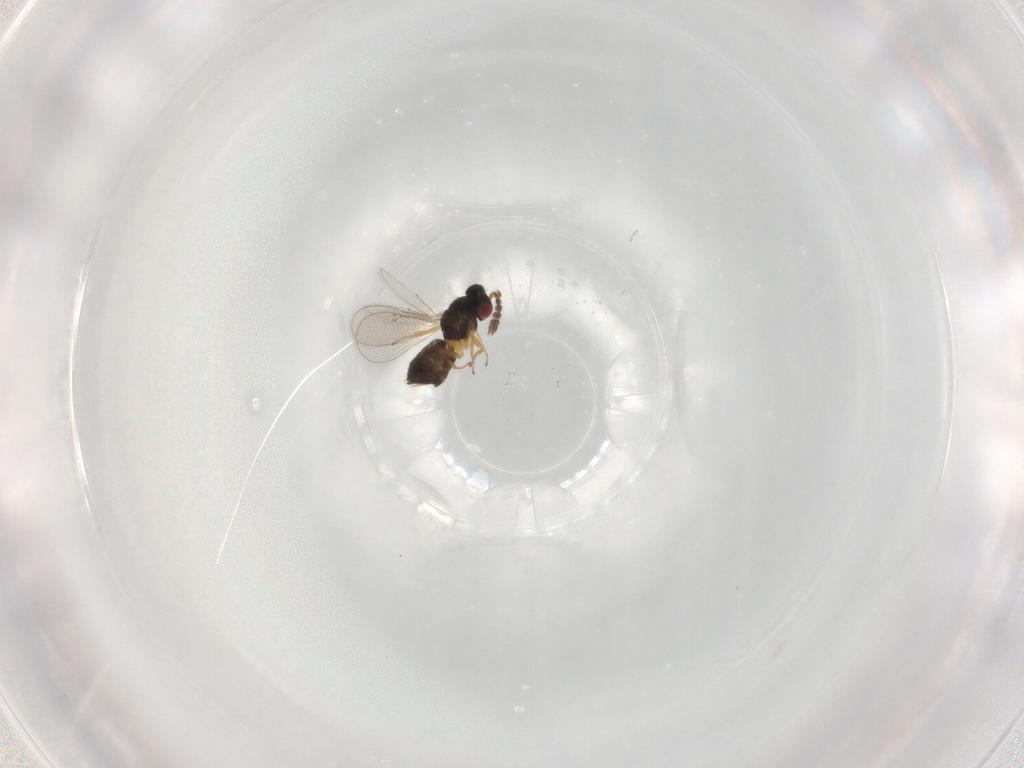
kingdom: Animalia
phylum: Arthropoda
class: Insecta
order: Hymenoptera
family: Eulophidae
